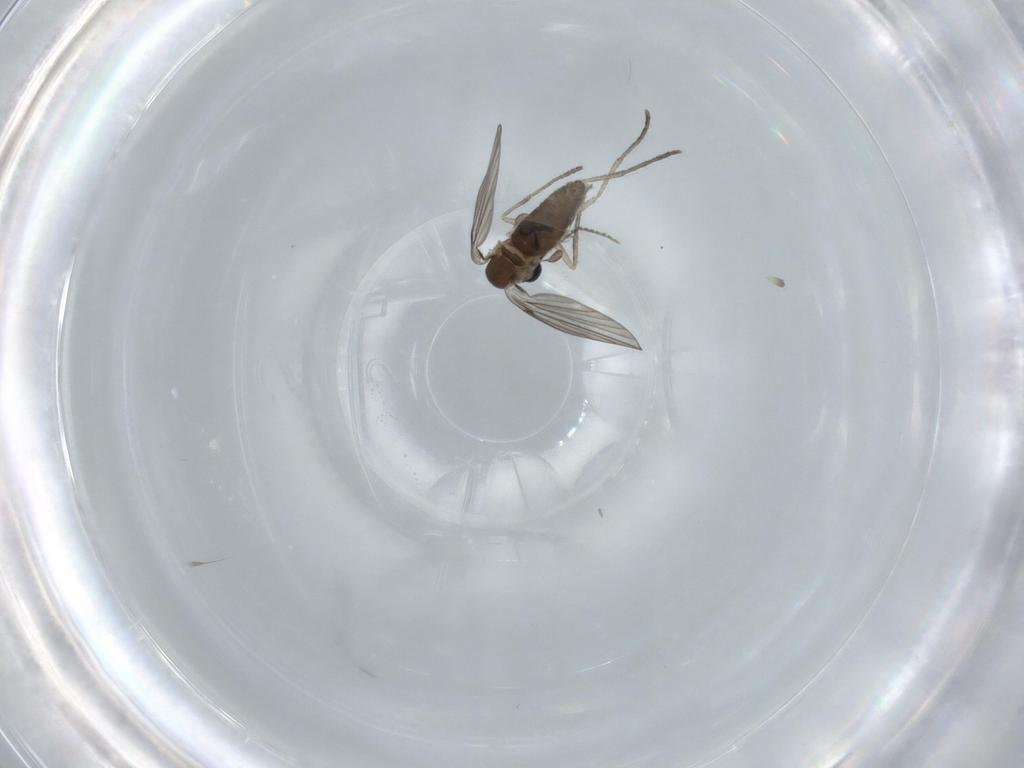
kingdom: Animalia
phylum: Arthropoda
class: Insecta
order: Diptera
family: Psychodidae
